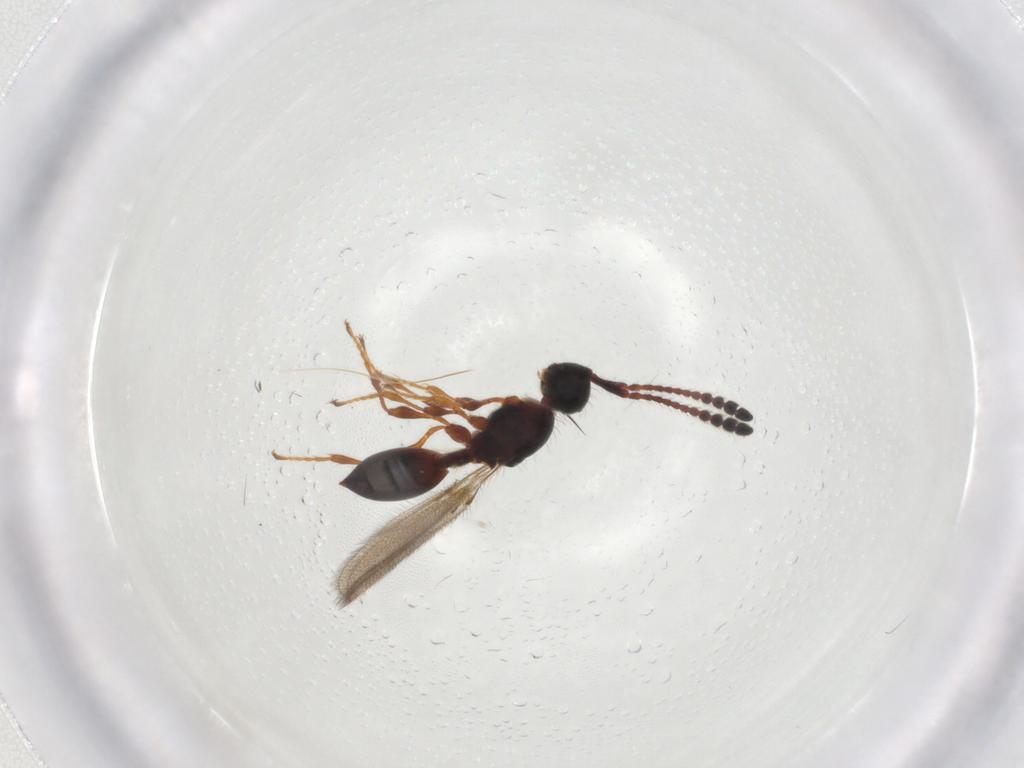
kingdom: Animalia
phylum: Arthropoda
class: Insecta
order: Hymenoptera
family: Diapriidae
